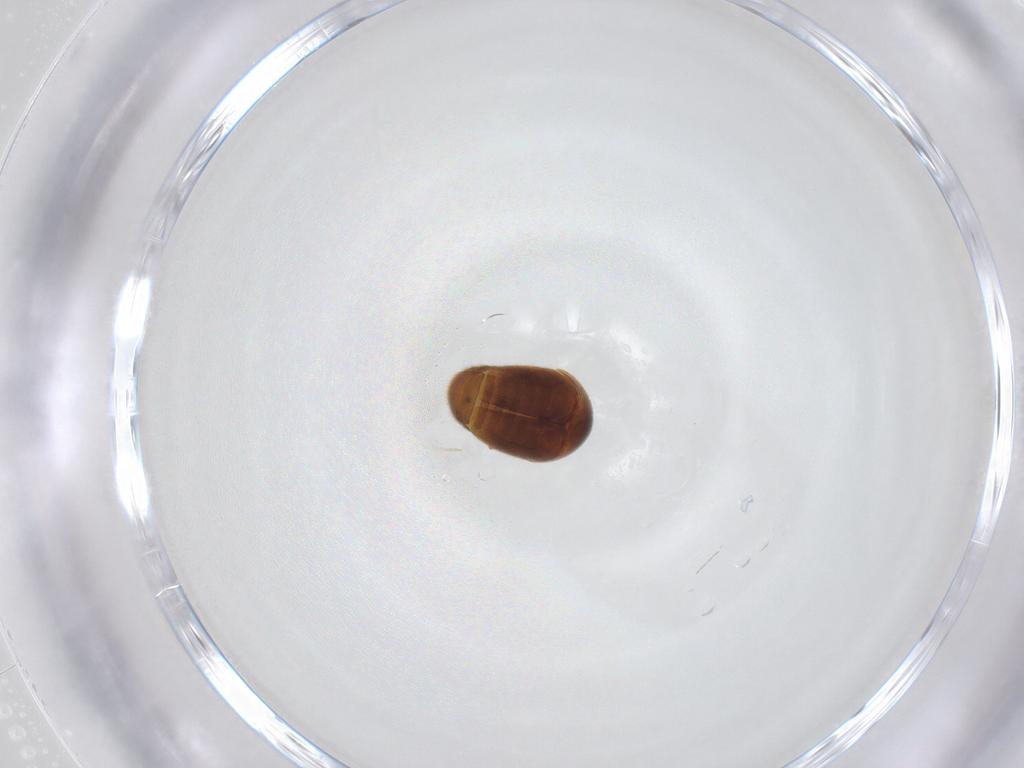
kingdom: Animalia
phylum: Arthropoda
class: Insecta
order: Coleoptera
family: Corylophidae
